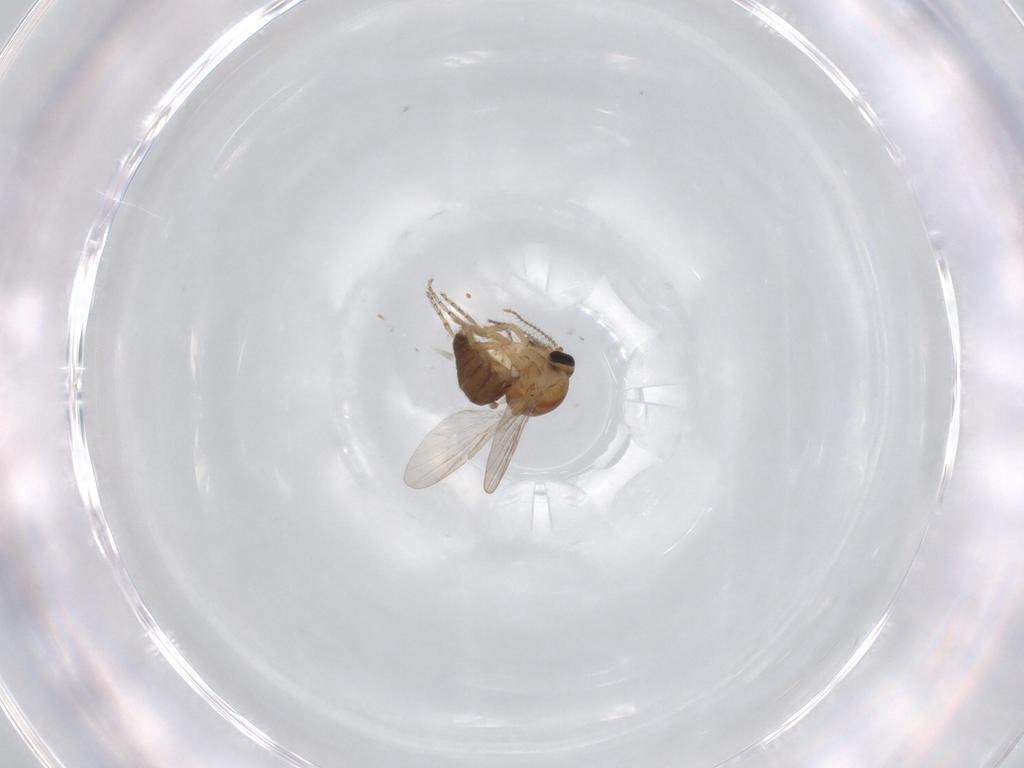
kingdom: Animalia
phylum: Arthropoda
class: Insecta
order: Diptera
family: Ceratopogonidae
